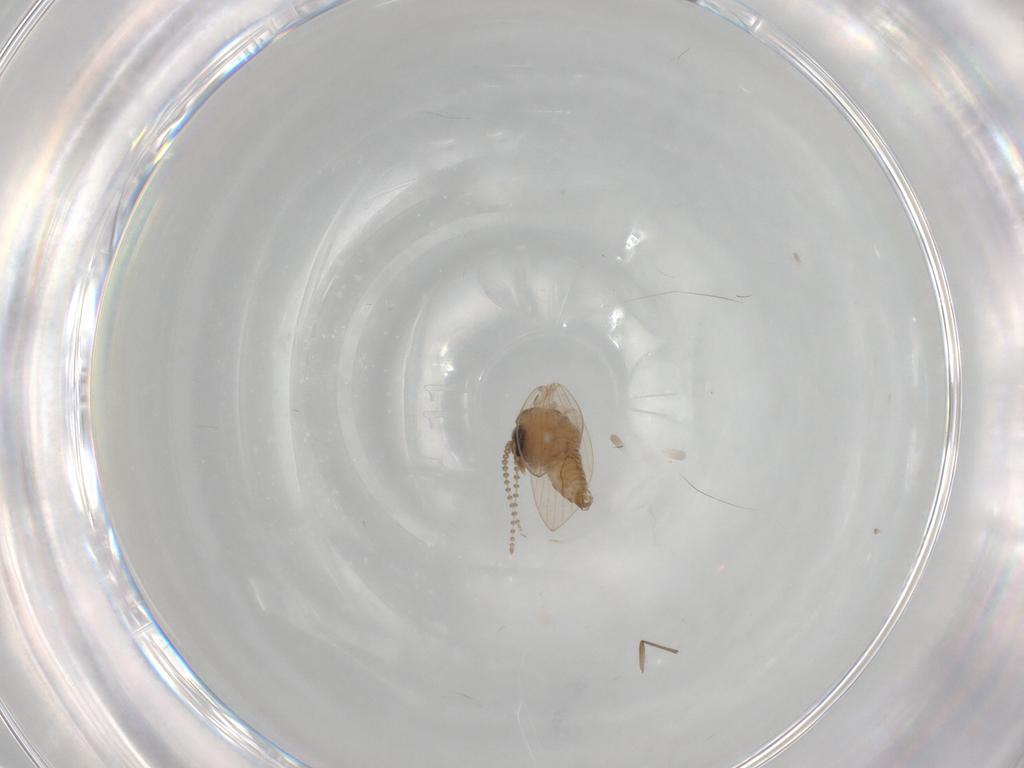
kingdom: Animalia
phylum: Arthropoda
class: Insecta
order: Diptera
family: Psychodidae
